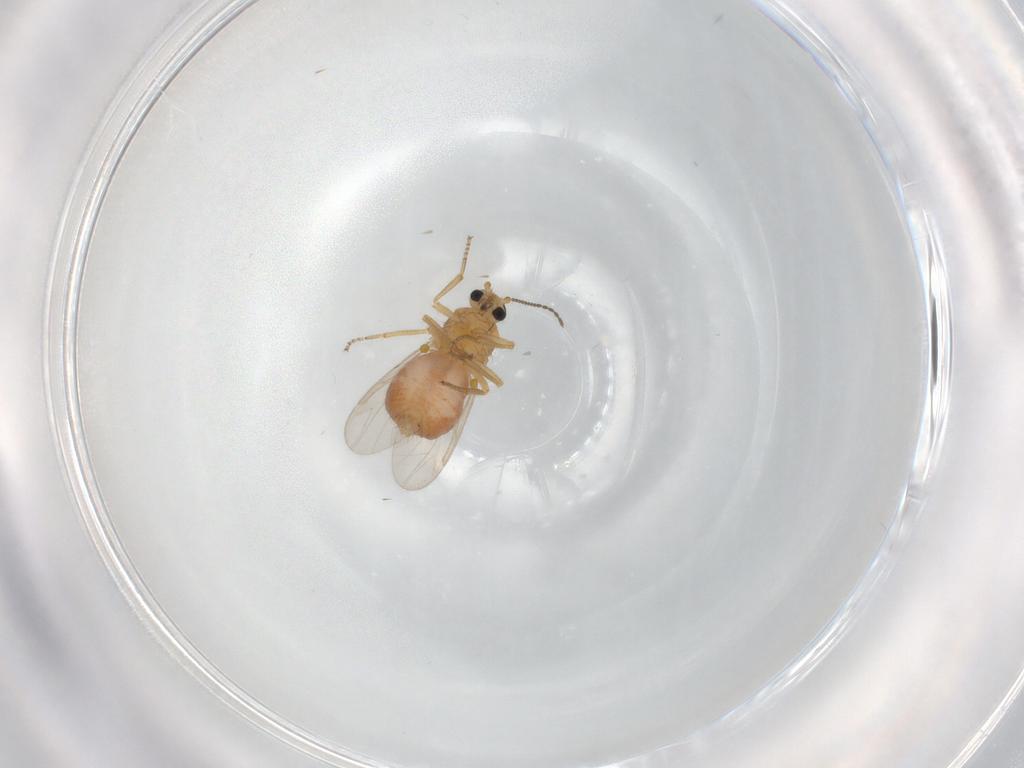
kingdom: Animalia
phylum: Arthropoda
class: Insecta
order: Diptera
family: Ceratopogonidae
